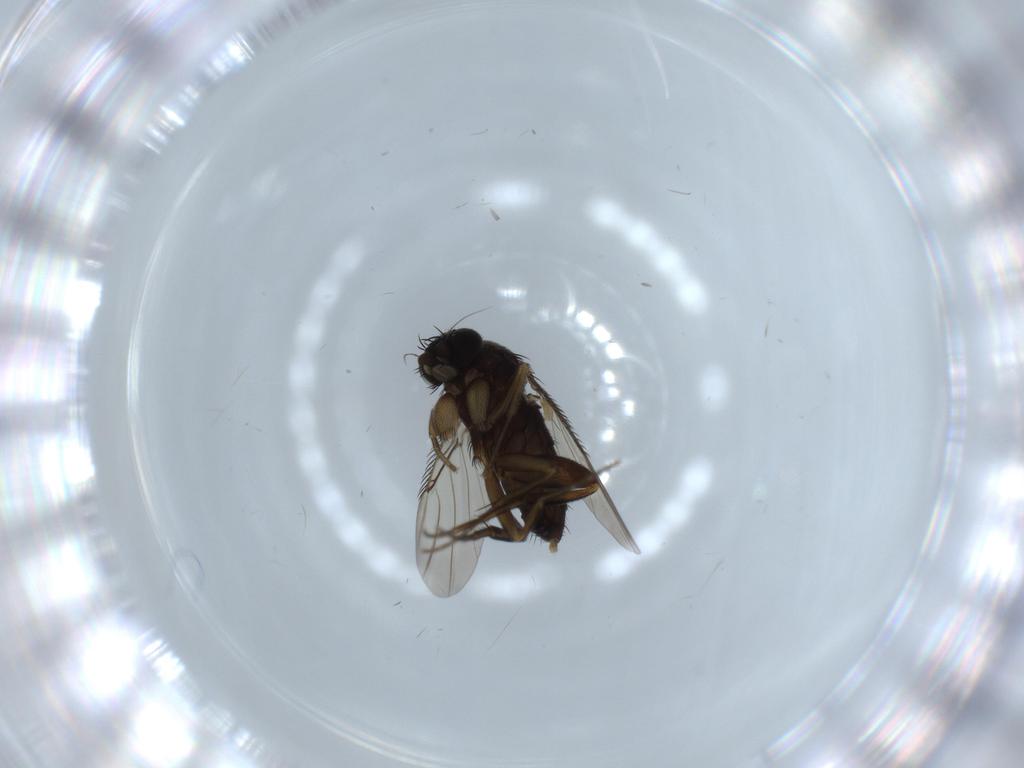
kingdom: Animalia
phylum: Arthropoda
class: Insecta
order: Diptera
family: Phoridae
